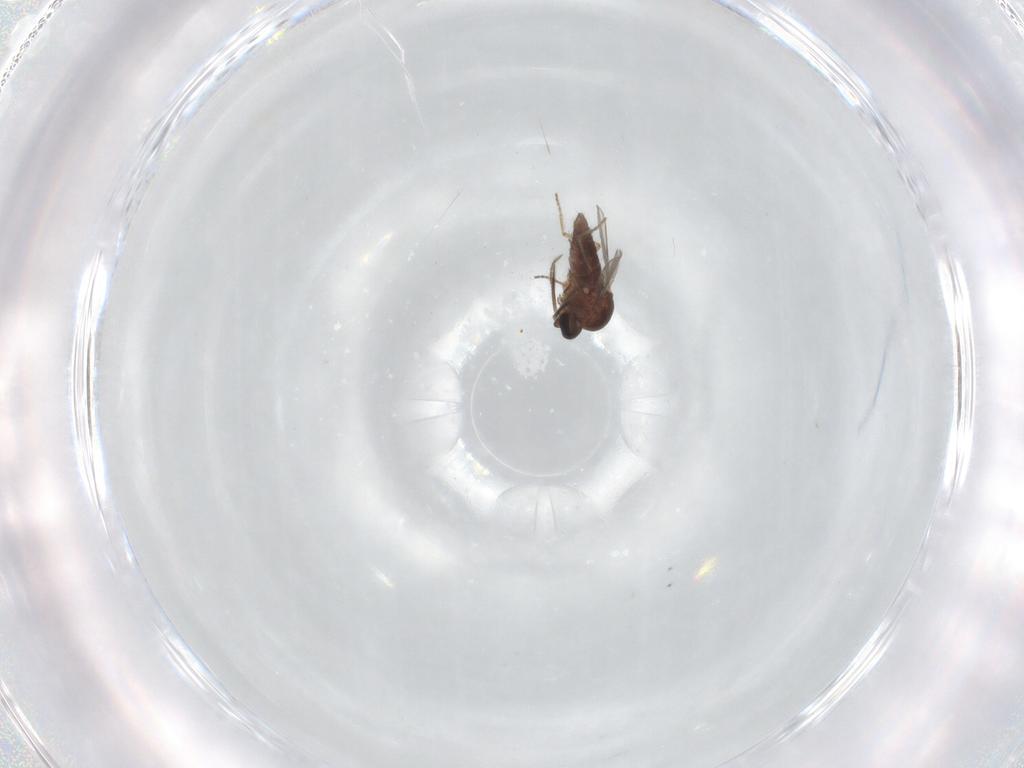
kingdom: Animalia
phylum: Arthropoda
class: Insecta
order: Diptera
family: Ceratopogonidae
